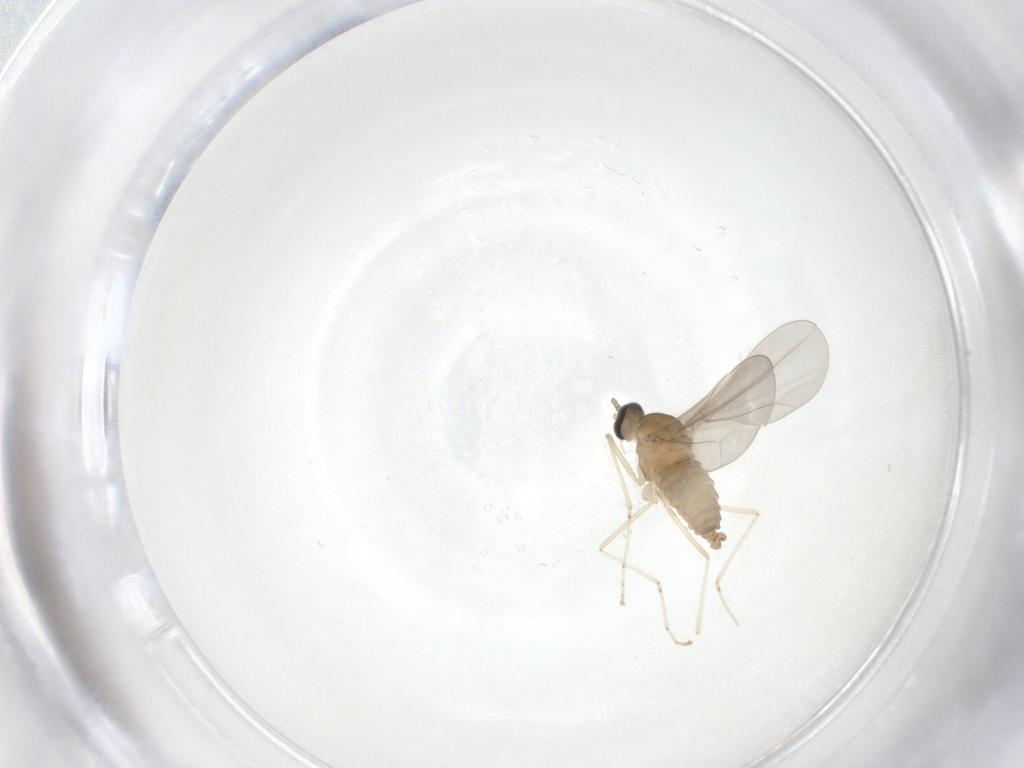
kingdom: Animalia
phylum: Arthropoda
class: Insecta
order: Diptera
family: Cecidomyiidae
